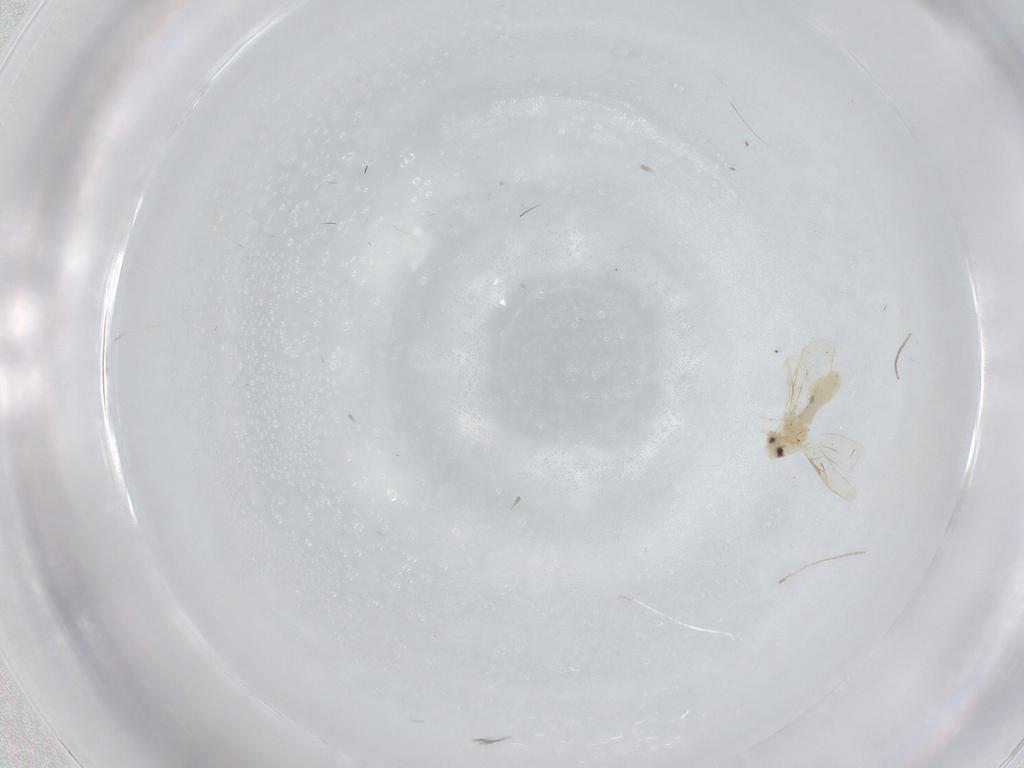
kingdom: Animalia
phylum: Arthropoda
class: Insecta
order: Diptera
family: Chironomidae
